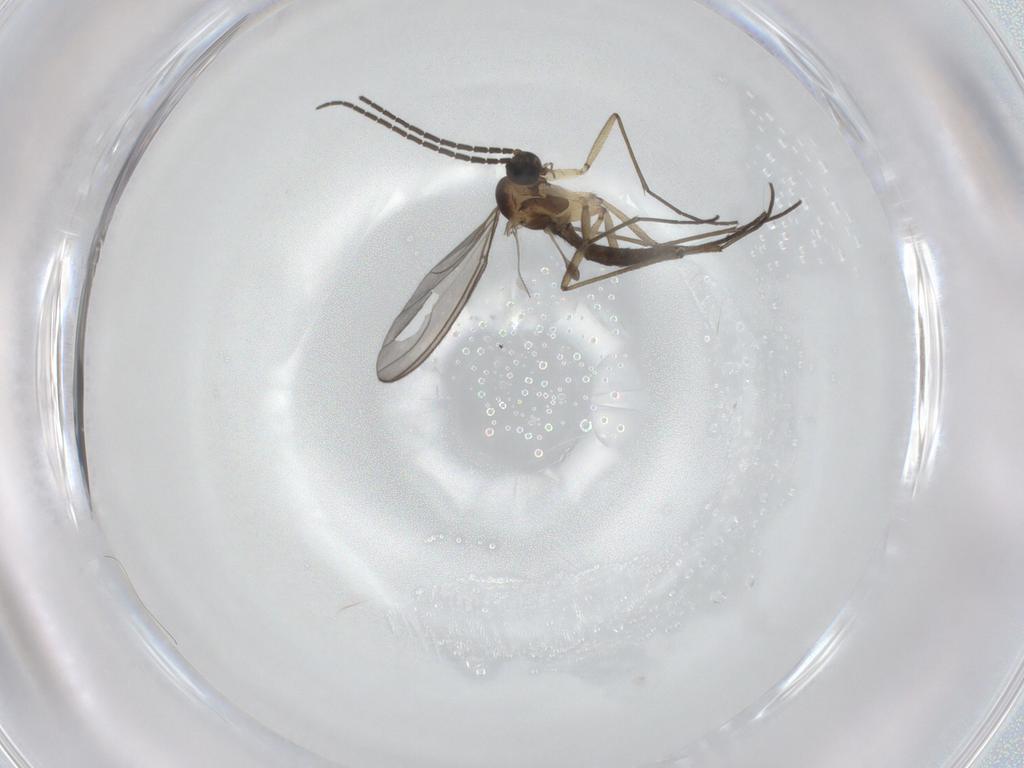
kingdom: Animalia
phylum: Arthropoda
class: Insecta
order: Diptera
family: Sciaridae
